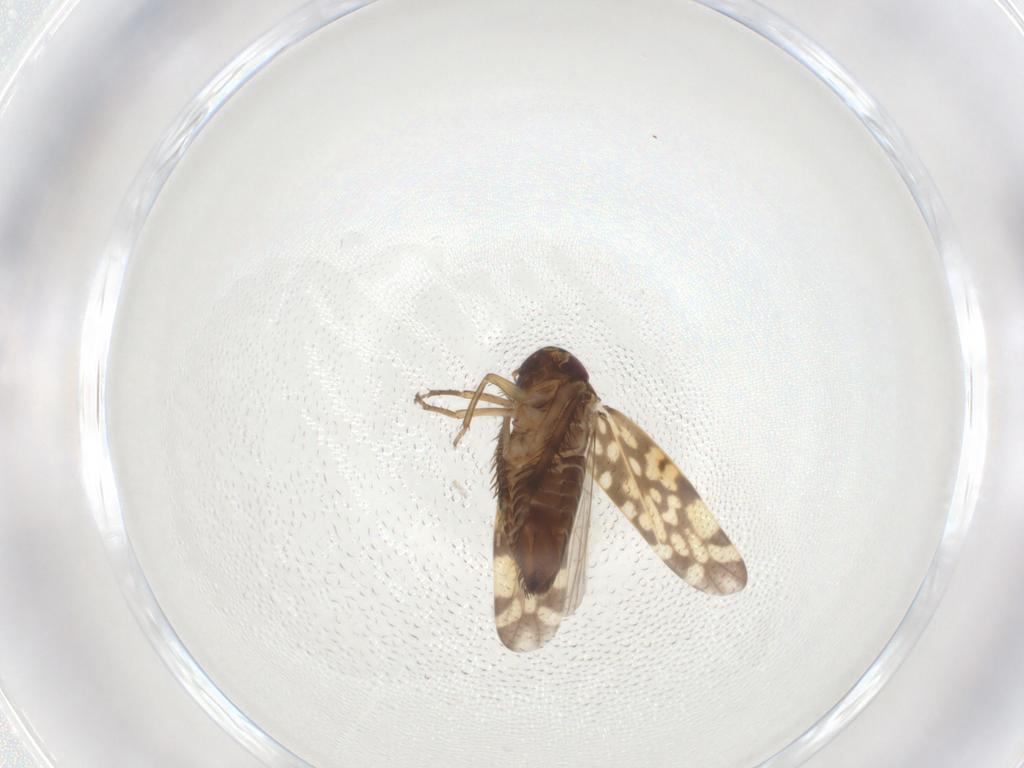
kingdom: Animalia
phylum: Arthropoda
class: Insecta
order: Hemiptera
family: Cicadellidae
